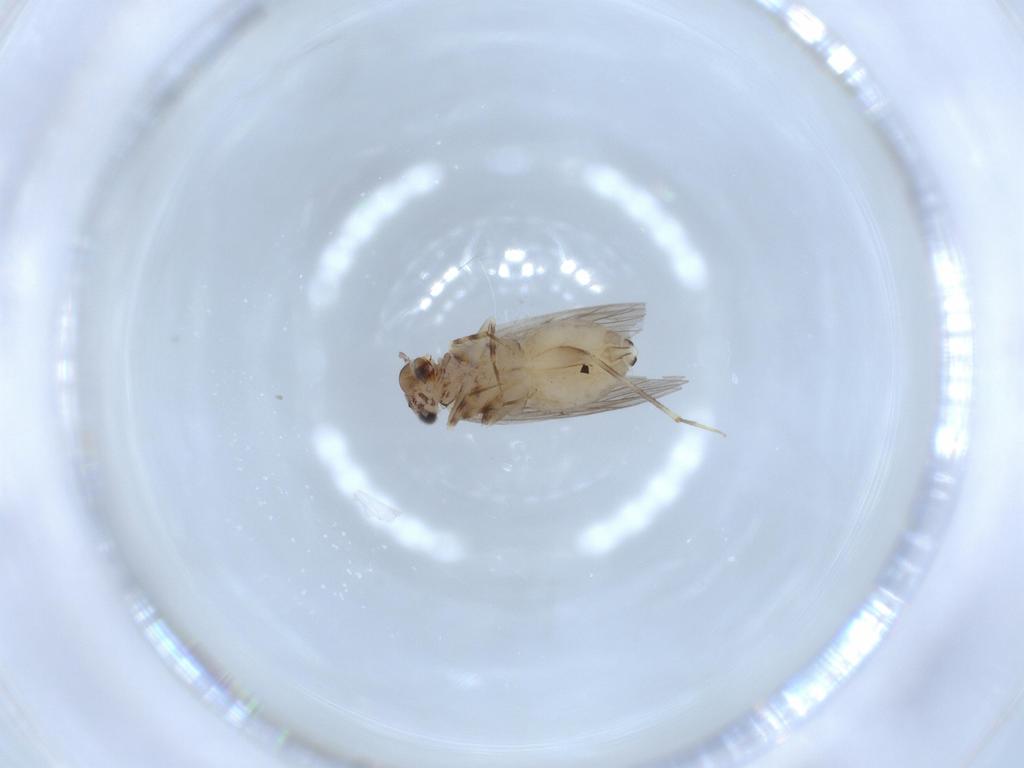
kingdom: Animalia
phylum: Arthropoda
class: Insecta
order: Psocodea
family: Lepidopsocidae
